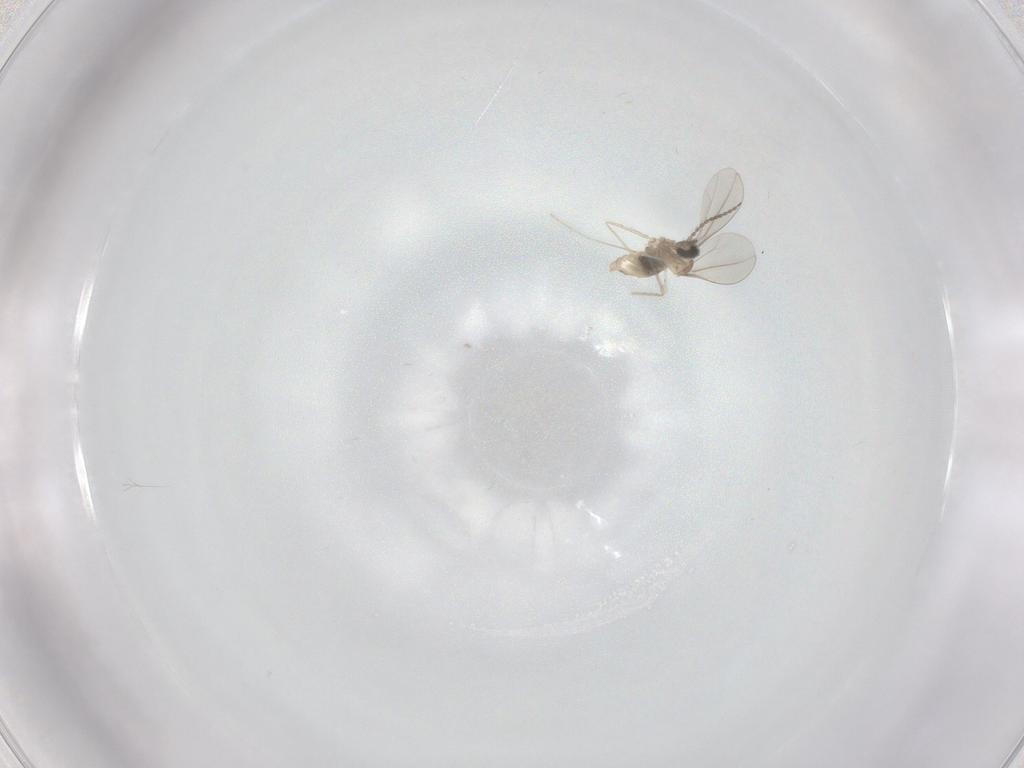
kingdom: Animalia
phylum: Arthropoda
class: Insecta
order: Diptera
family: Cecidomyiidae
